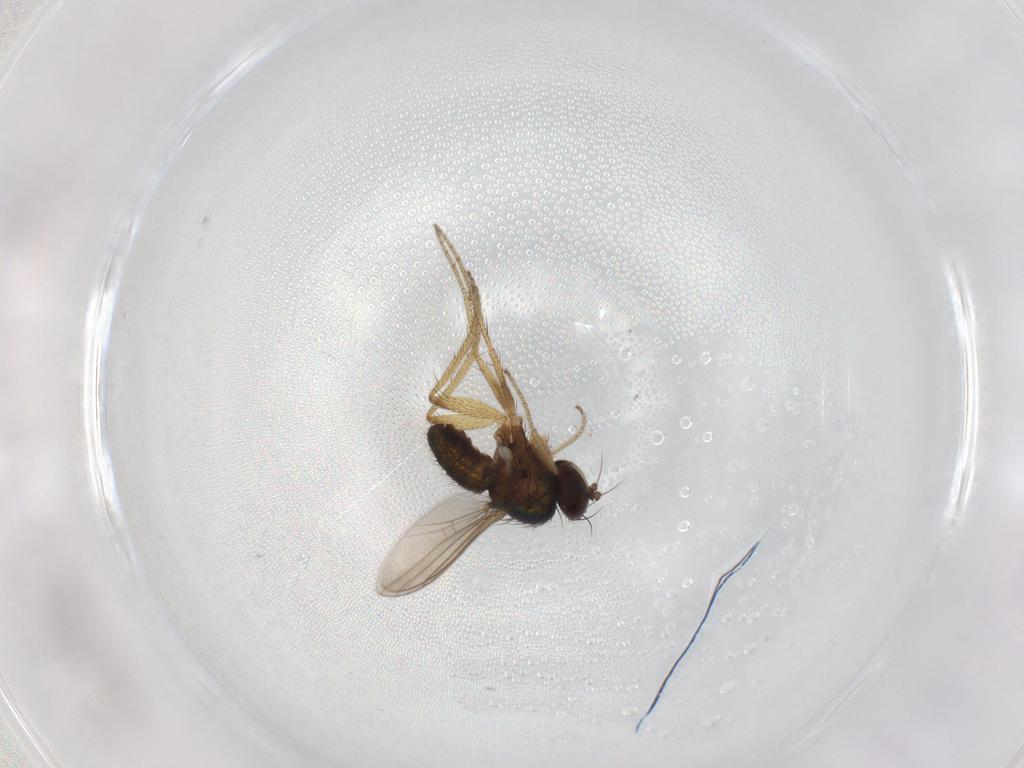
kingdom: Animalia
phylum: Arthropoda
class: Insecta
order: Diptera
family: Dolichopodidae
